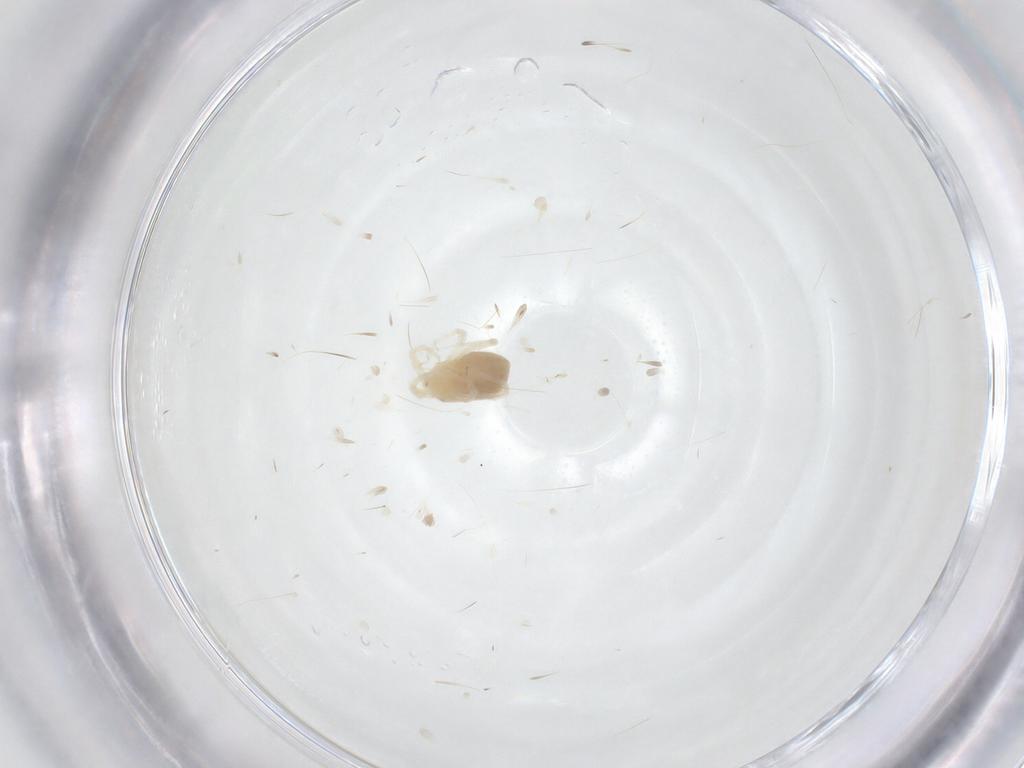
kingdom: Animalia
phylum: Arthropoda
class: Arachnida
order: Trombidiformes
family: Anystidae
